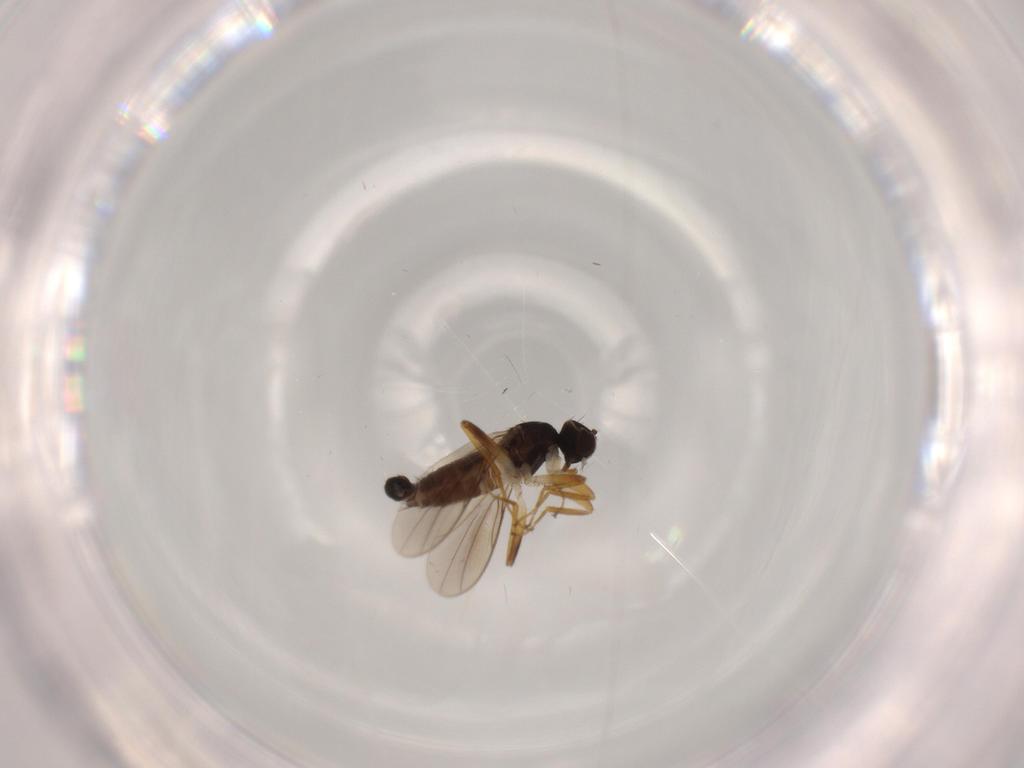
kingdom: Animalia
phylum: Arthropoda
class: Insecta
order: Diptera
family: Hybotidae
